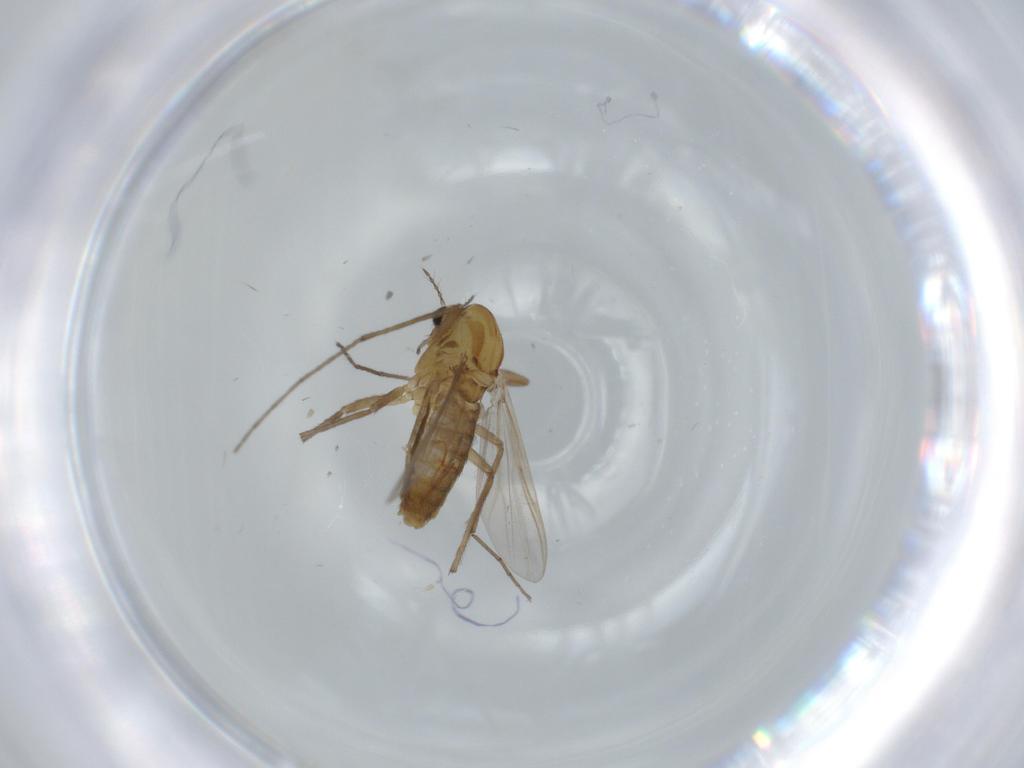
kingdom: Animalia
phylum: Arthropoda
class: Insecta
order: Diptera
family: Chironomidae
